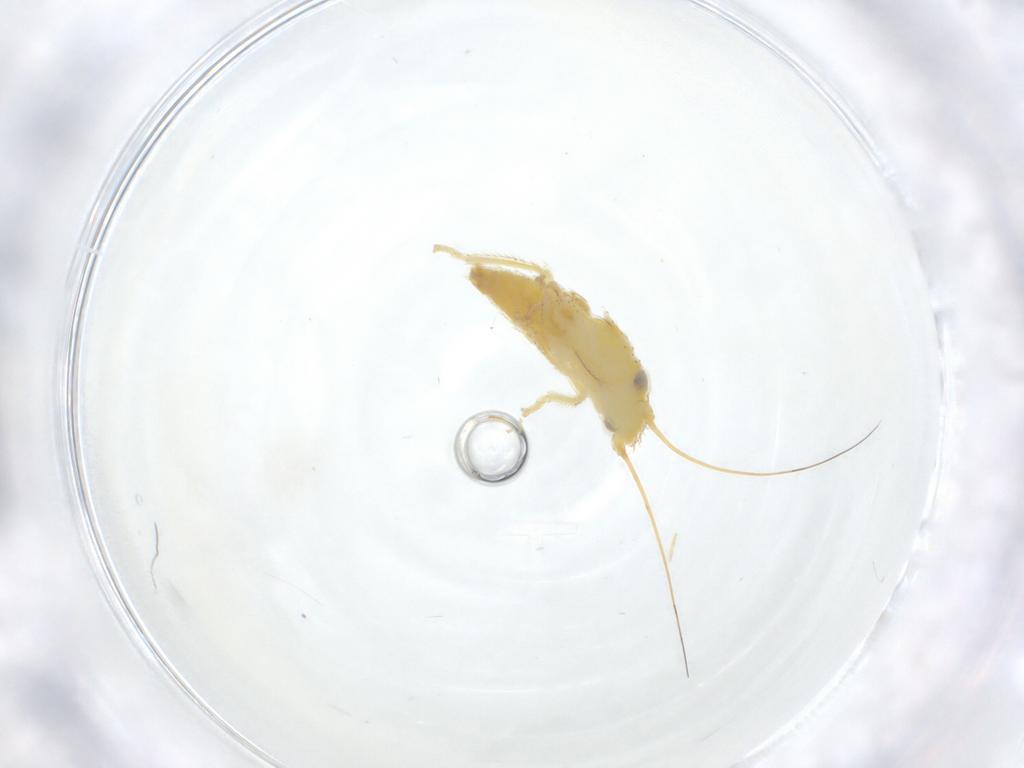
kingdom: Animalia
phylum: Arthropoda
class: Insecta
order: Hemiptera
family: Cicadellidae
